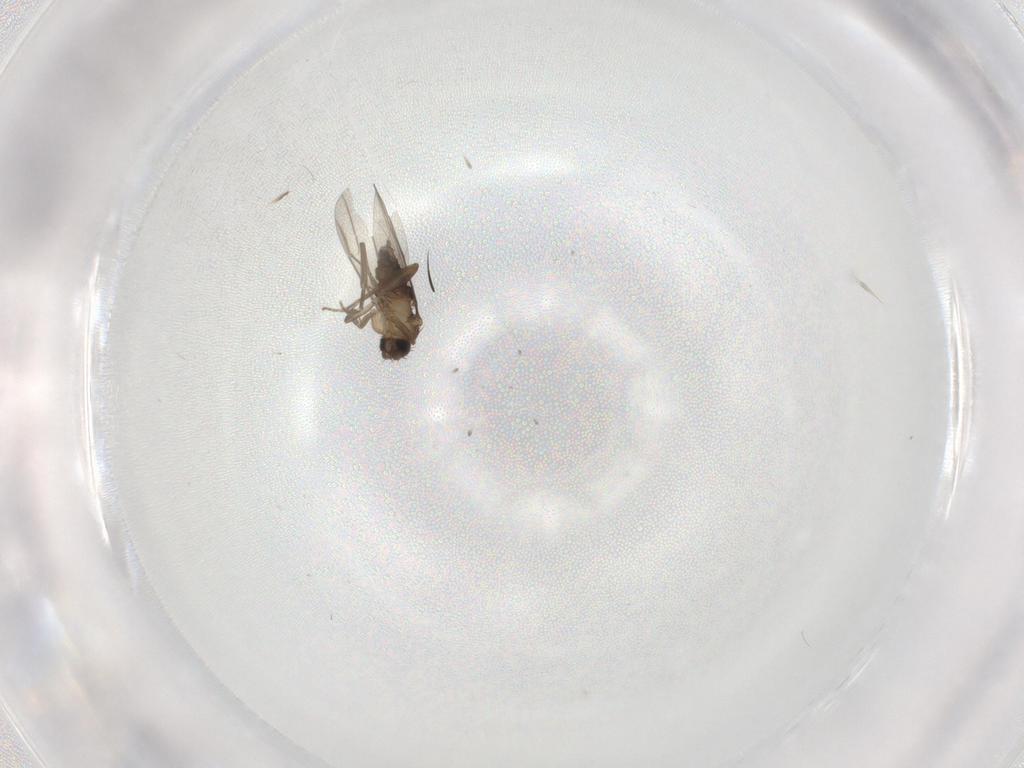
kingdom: Animalia
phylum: Arthropoda
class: Insecta
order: Diptera
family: Phoridae
